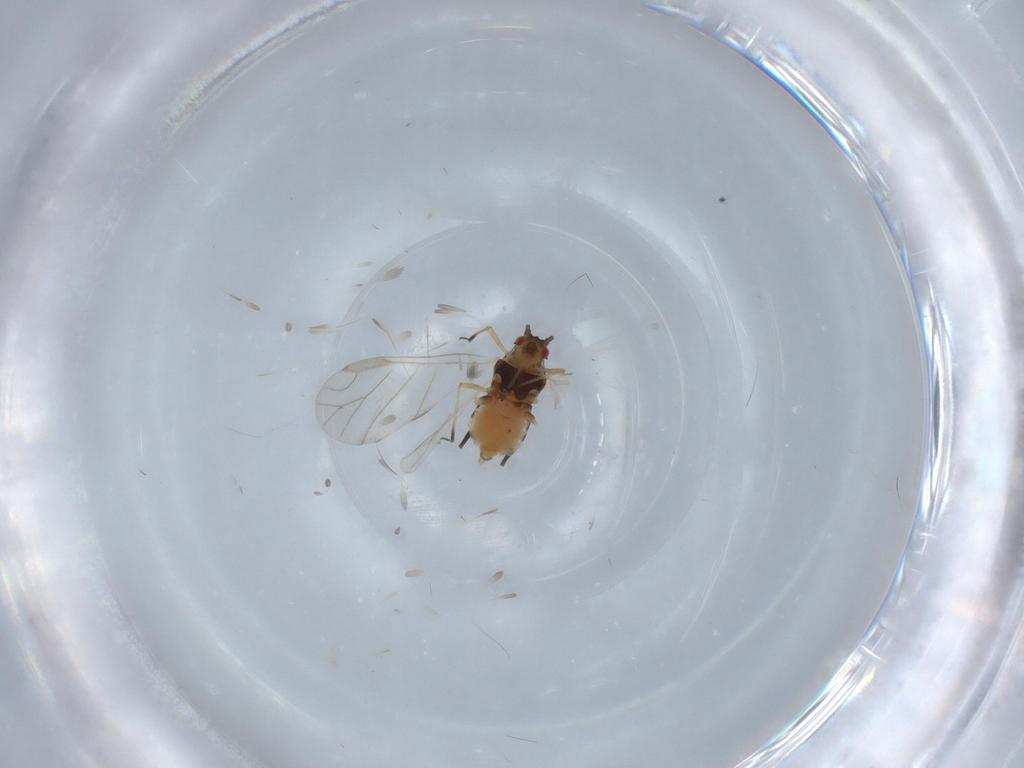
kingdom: Animalia
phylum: Arthropoda
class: Insecta
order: Hemiptera
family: Aphididae
